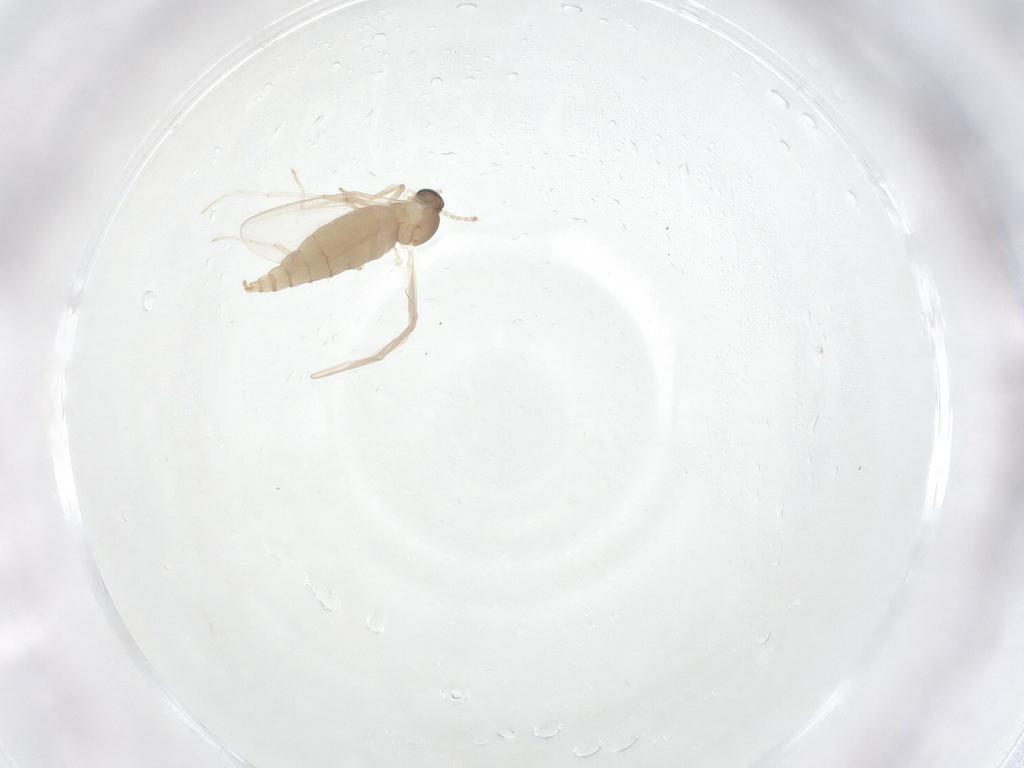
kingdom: Animalia
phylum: Arthropoda
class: Insecta
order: Diptera
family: Cecidomyiidae
